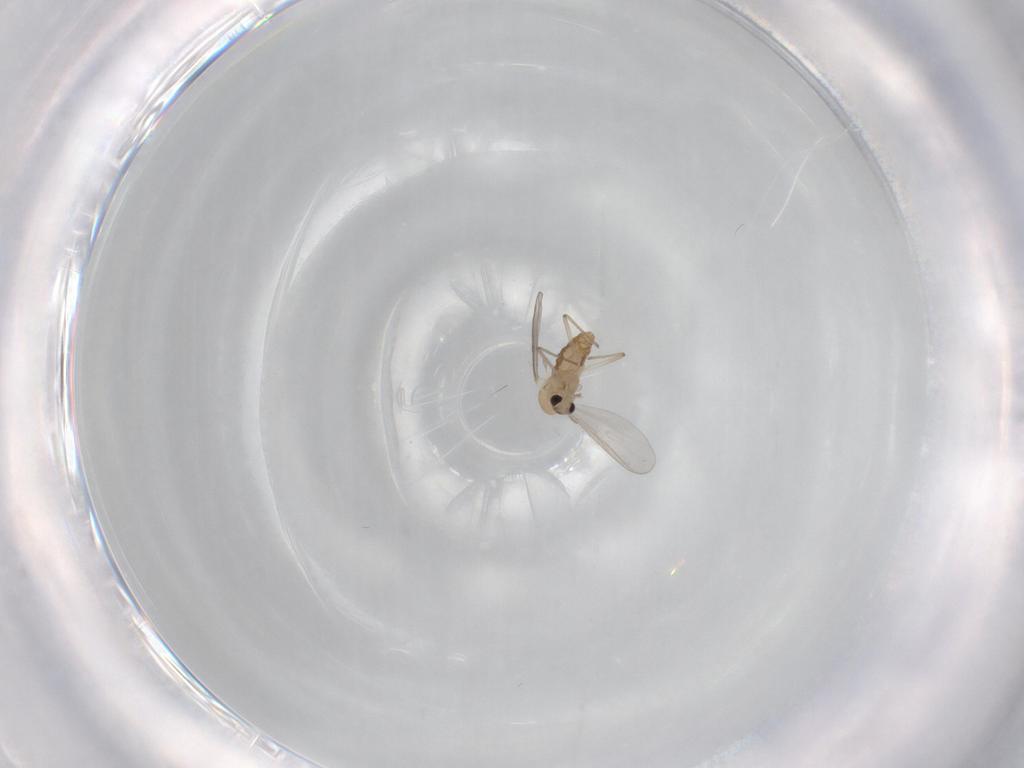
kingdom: Animalia
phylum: Arthropoda
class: Insecta
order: Diptera
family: Chironomidae
